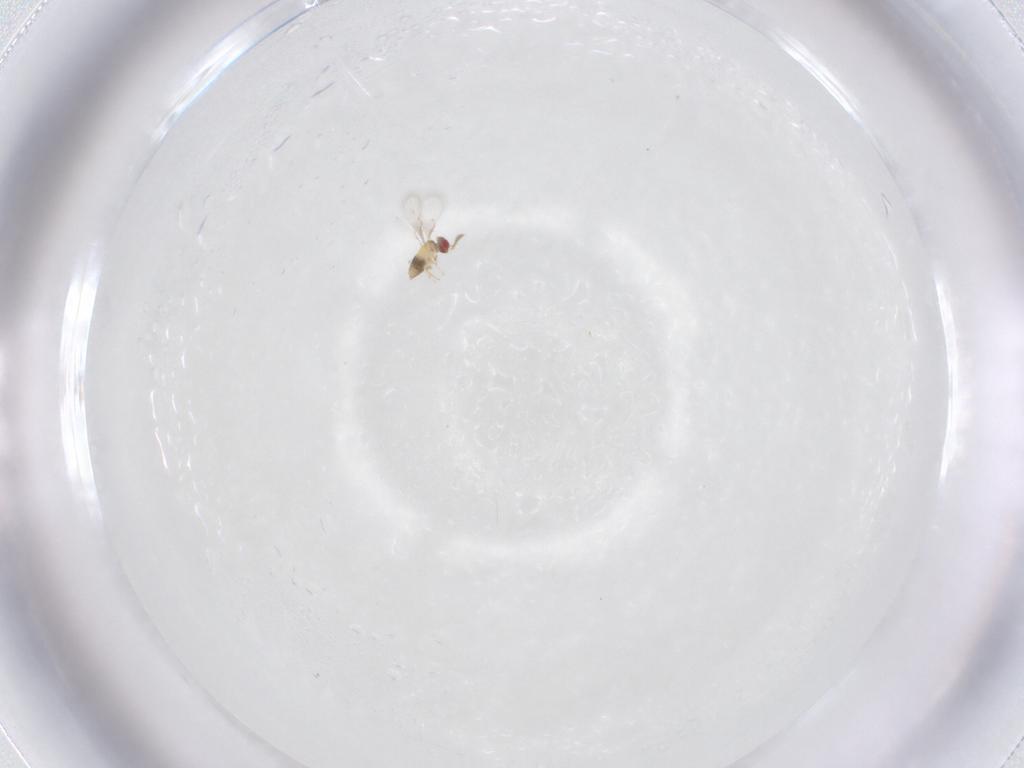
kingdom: Animalia
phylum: Arthropoda
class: Insecta
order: Hymenoptera
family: Trichogrammatidae
